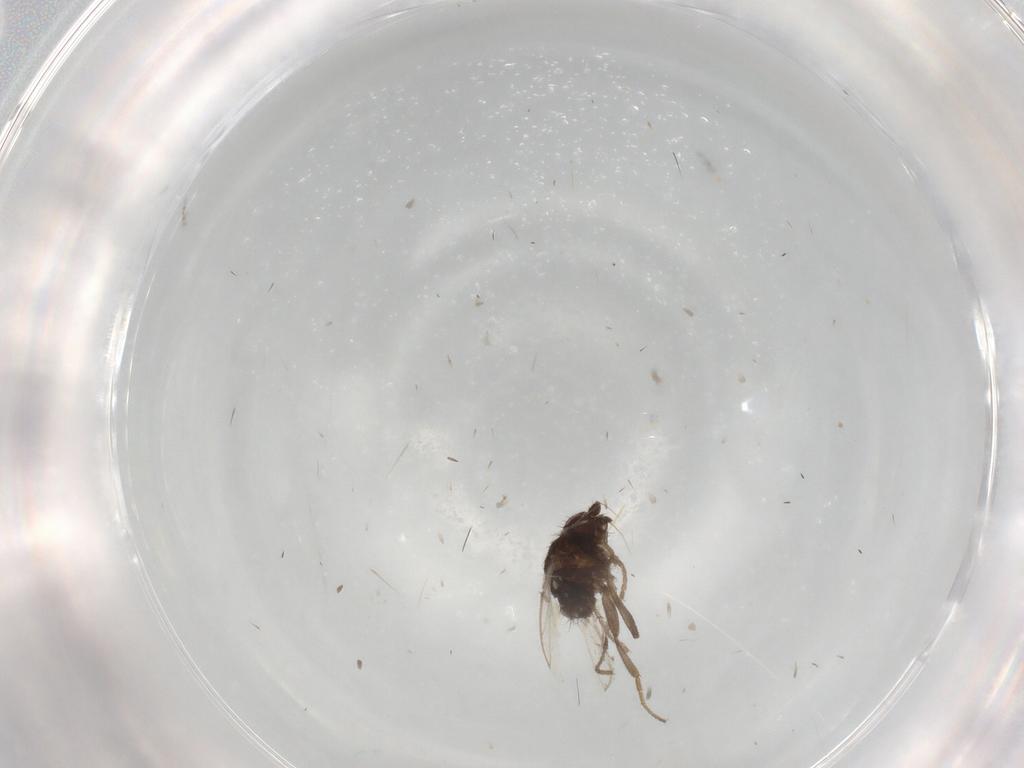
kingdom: Animalia
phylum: Arthropoda
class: Insecta
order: Diptera
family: Sphaeroceridae
